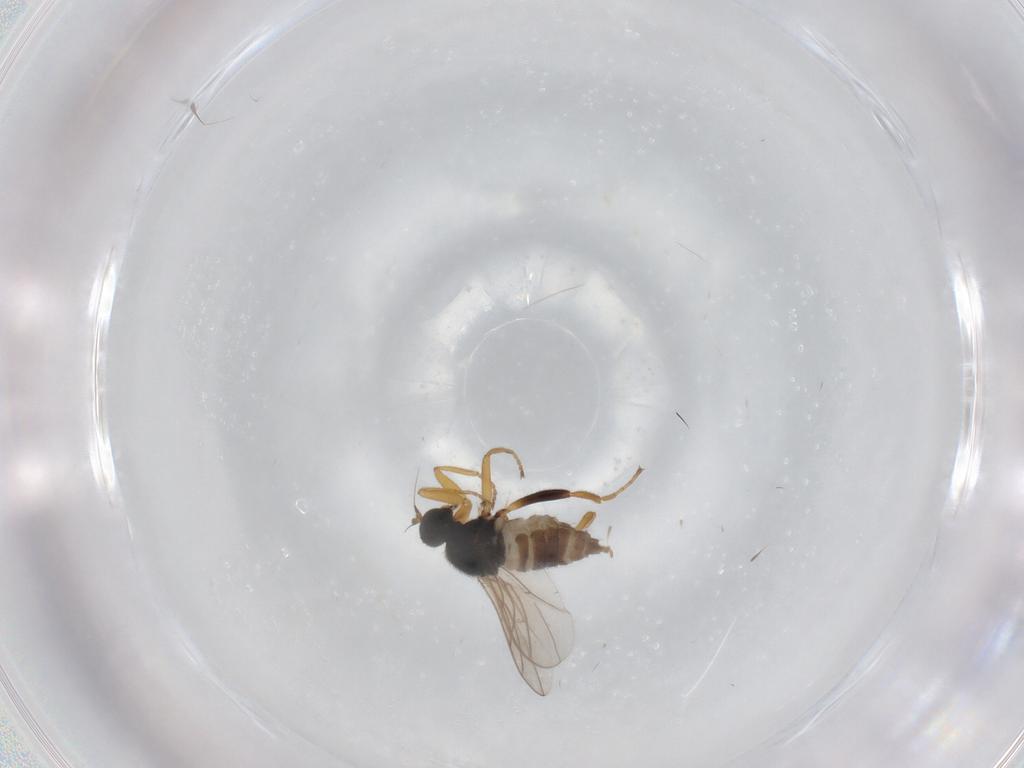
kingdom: Animalia
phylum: Arthropoda
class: Insecta
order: Diptera
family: Hybotidae
